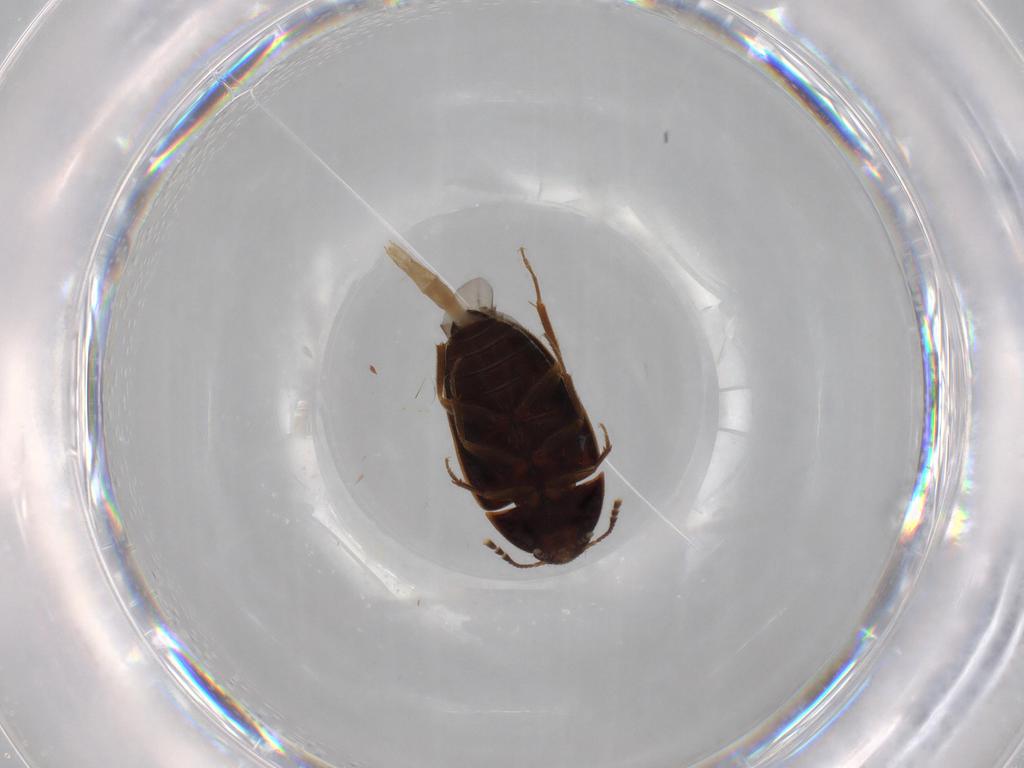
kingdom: Animalia
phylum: Arthropoda
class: Insecta
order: Coleoptera
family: Mycetophagidae
